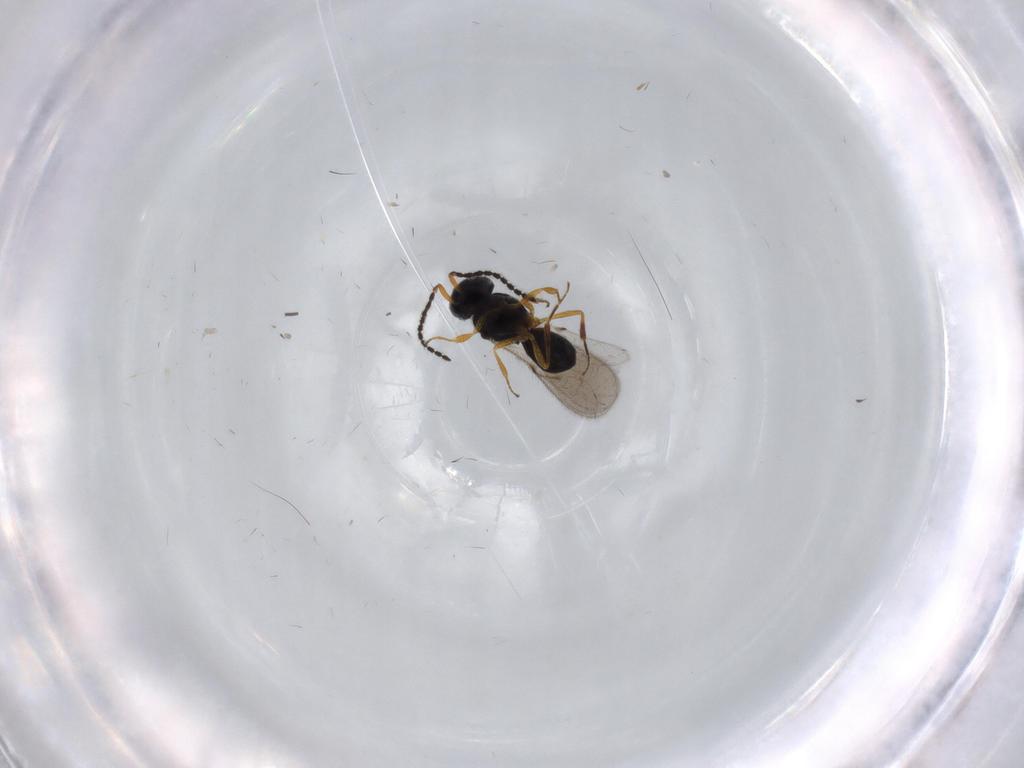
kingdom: Animalia
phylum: Arthropoda
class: Insecta
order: Hymenoptera
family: Scelionidae
